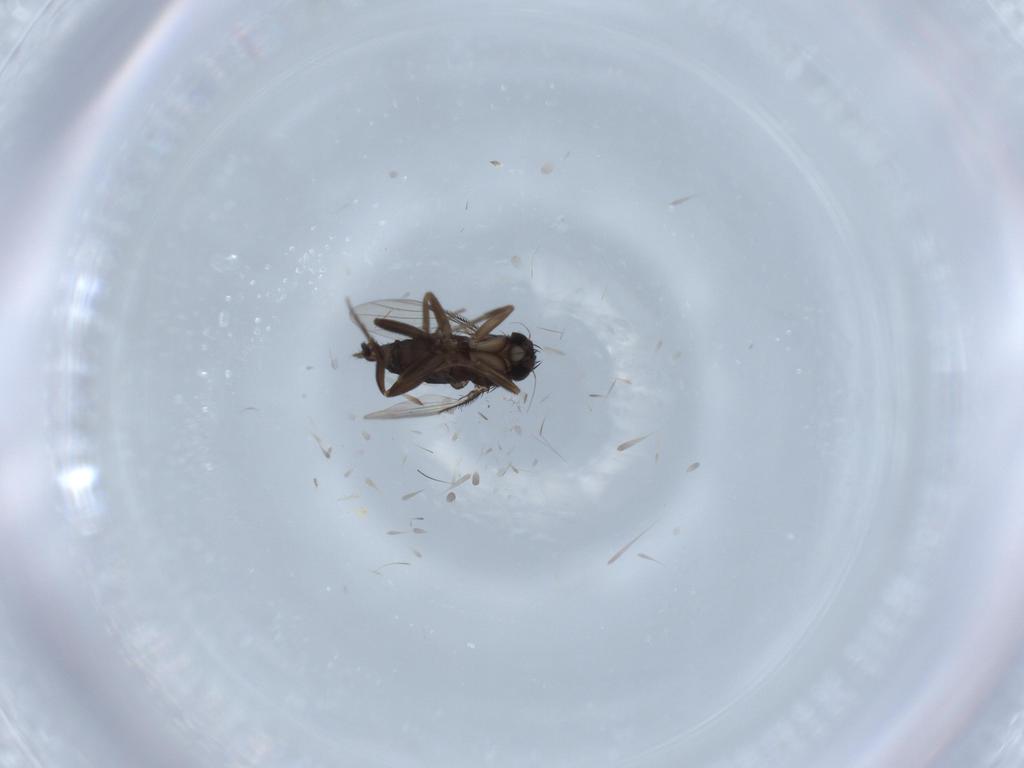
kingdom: Animalia
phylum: Arthropoda
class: Insecta
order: Diptera
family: Phoridae
